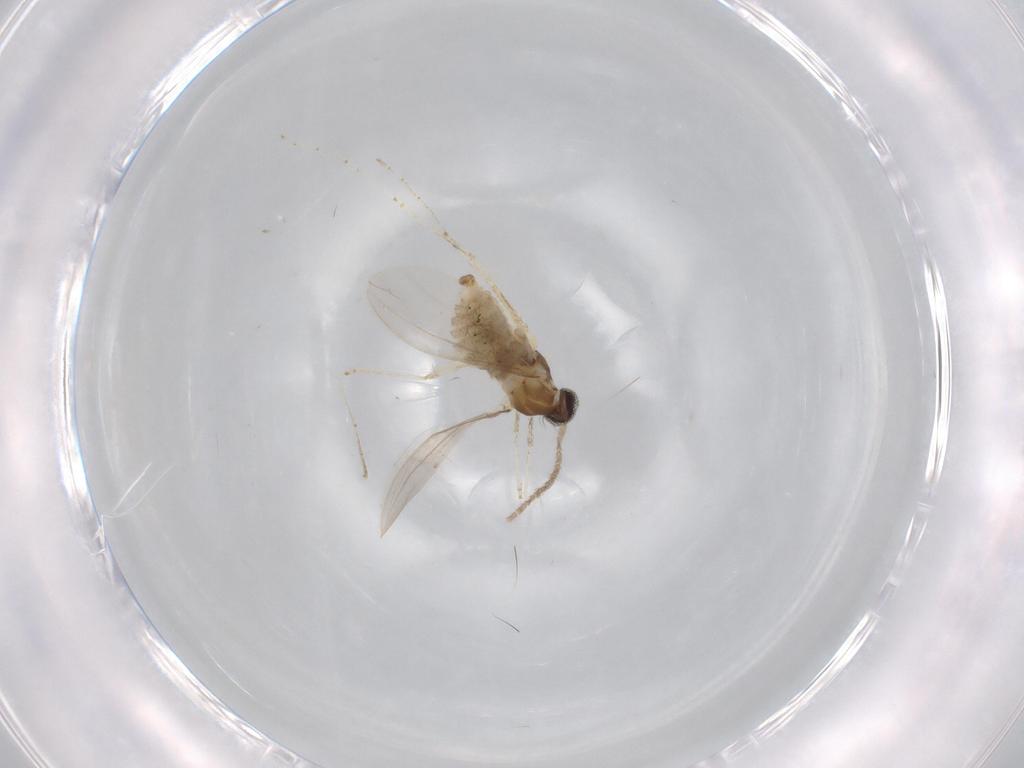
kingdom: Animalia
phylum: Arthropoda
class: Insecta
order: Diptera
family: Cecidomyiidae
